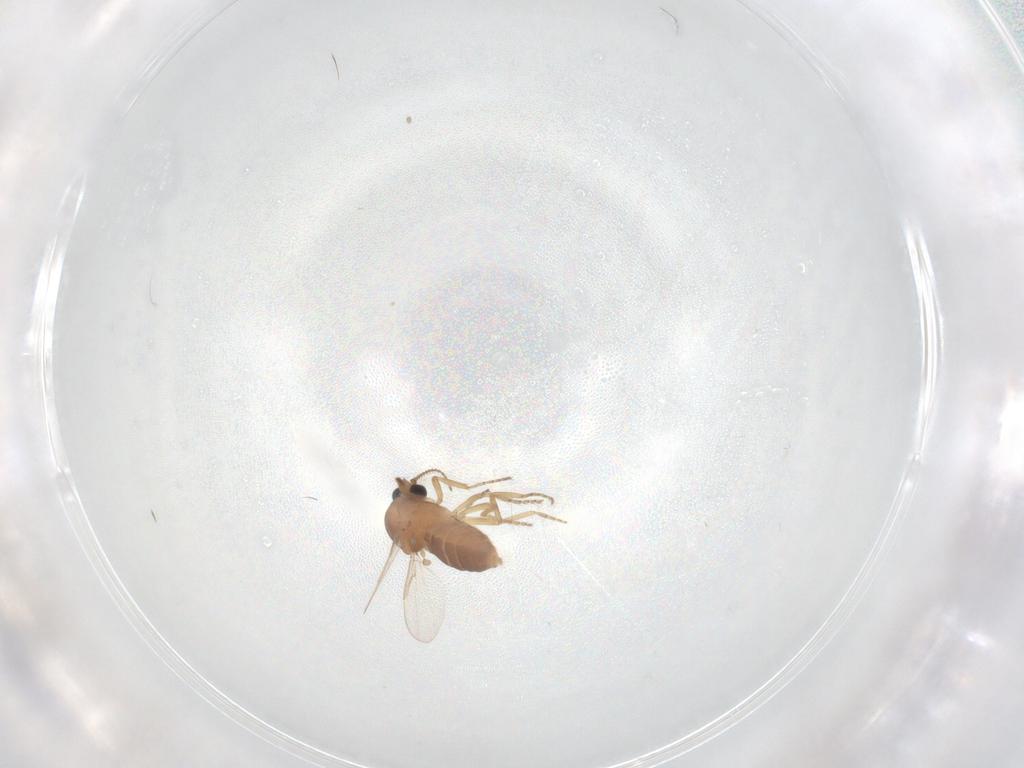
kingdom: Animalia
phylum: Arthropoda
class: Insecta
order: Diptera
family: Ceratopogonidae
